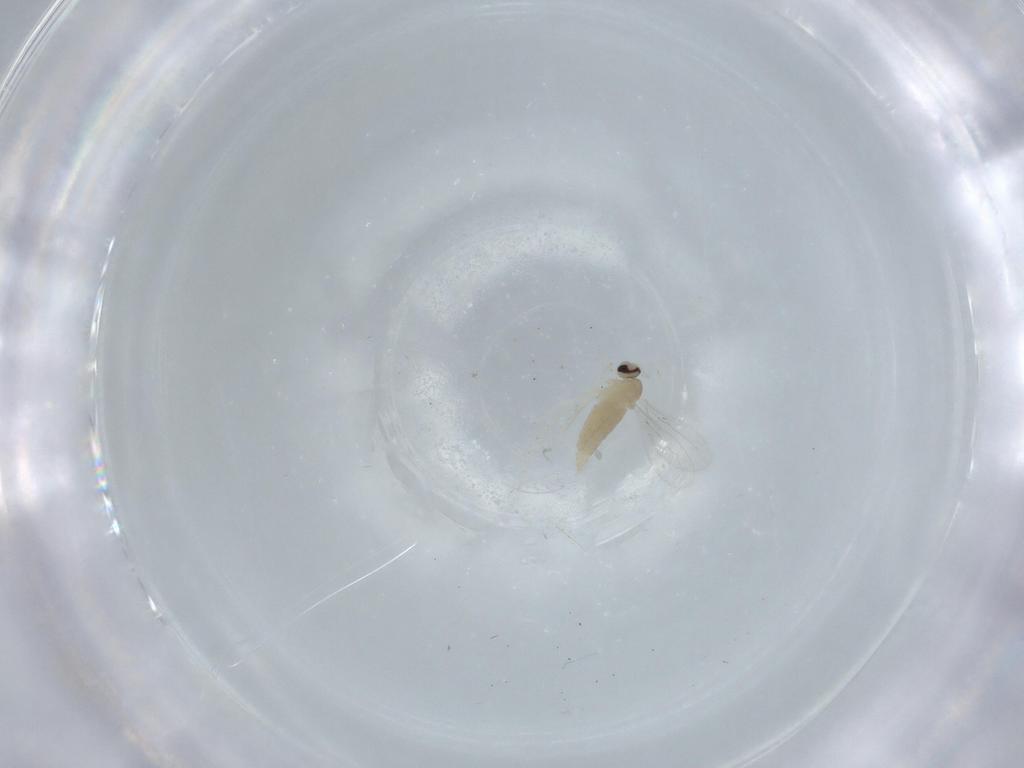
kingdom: Animalia
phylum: Arthropoda
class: Insecta
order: Diptera
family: Cecidomyiidae
